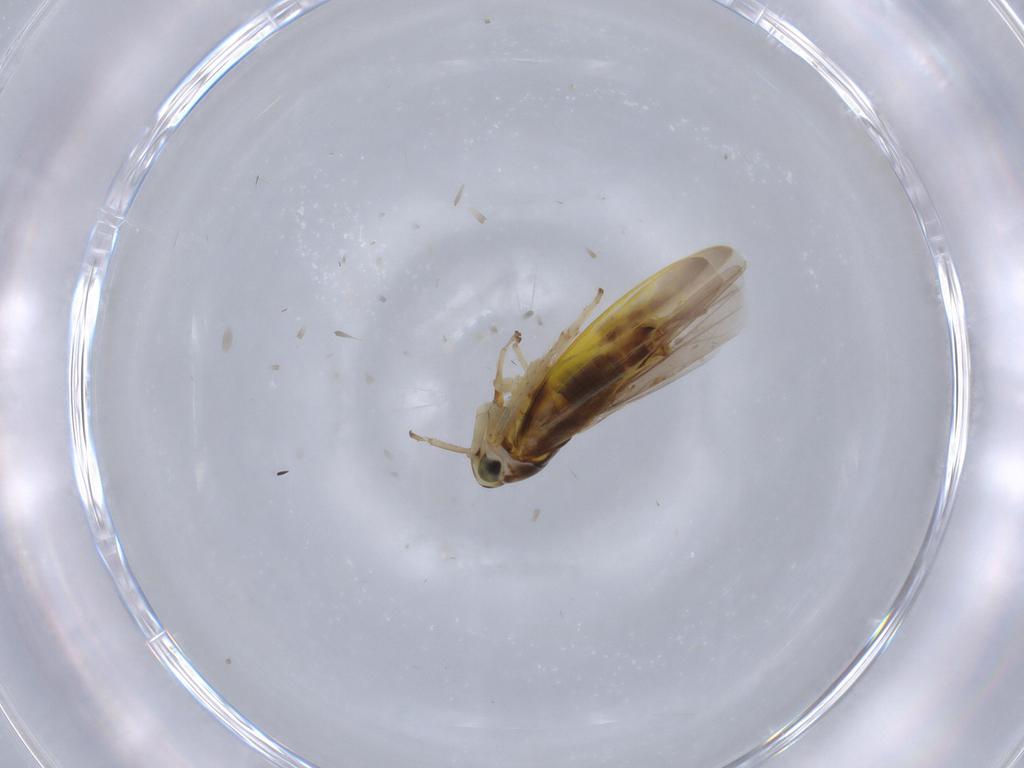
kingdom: Animalia
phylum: Arthropoda
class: Insecta
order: Hemiptera
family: Cicadellidae
